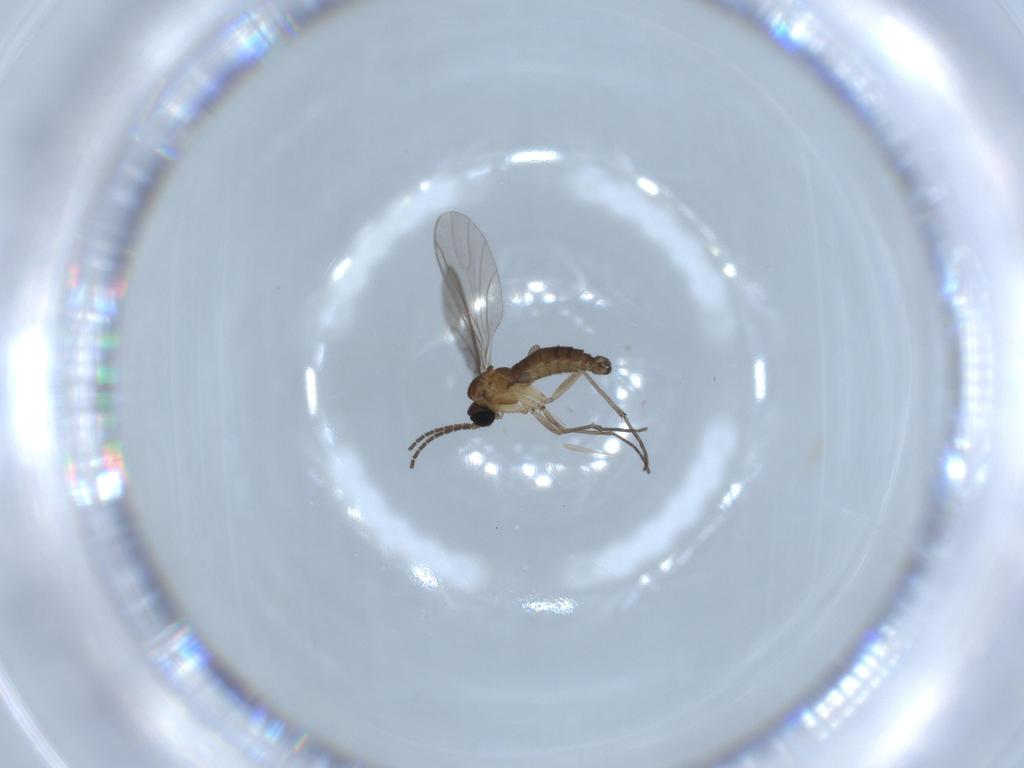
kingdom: Animalia
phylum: Arthropoda
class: Insecta
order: Diptera
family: Sciaridae
